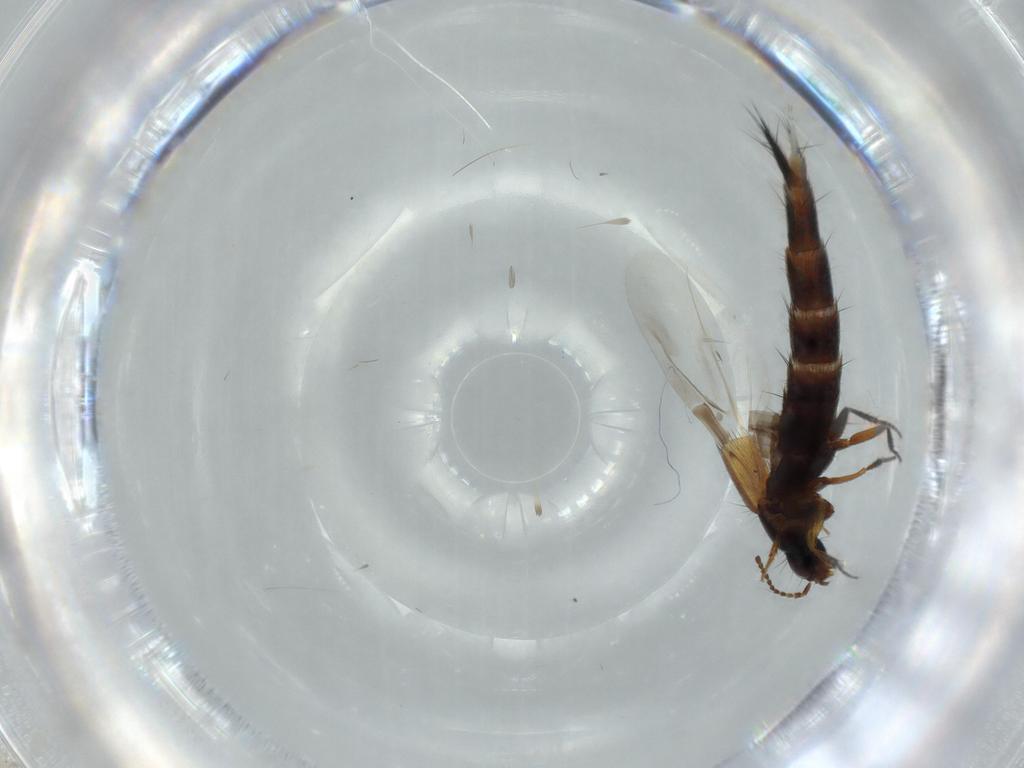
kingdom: Animalia
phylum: Arthropoda
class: Insecta
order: Coleoptera
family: Staphylinidae
